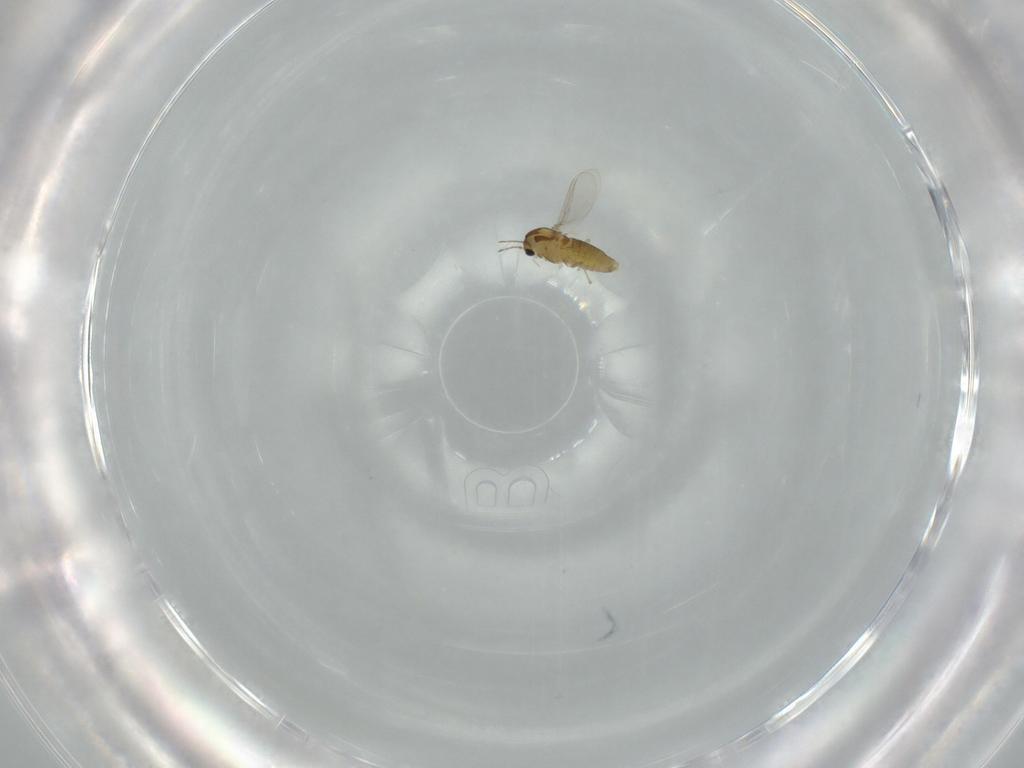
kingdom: Animalia
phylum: Arthropoda
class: Insecta
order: Diptera
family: Chironomidae
